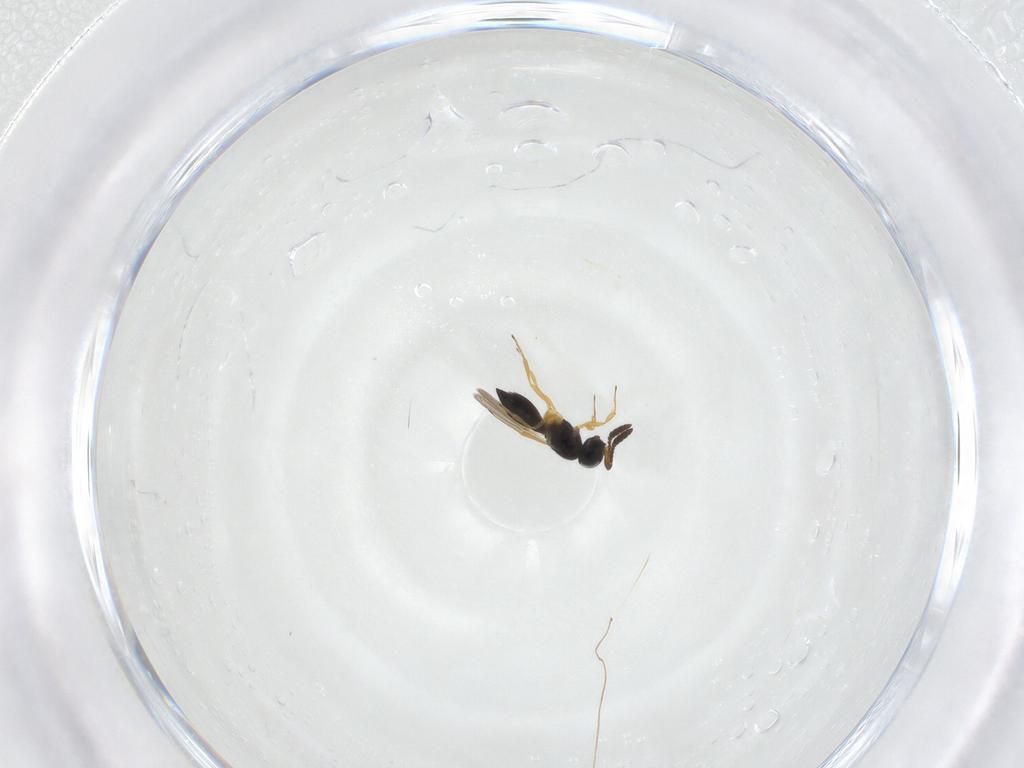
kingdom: Animalia
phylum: Arthropoda
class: Insecta
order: Hymenoptera
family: Scelionidae
